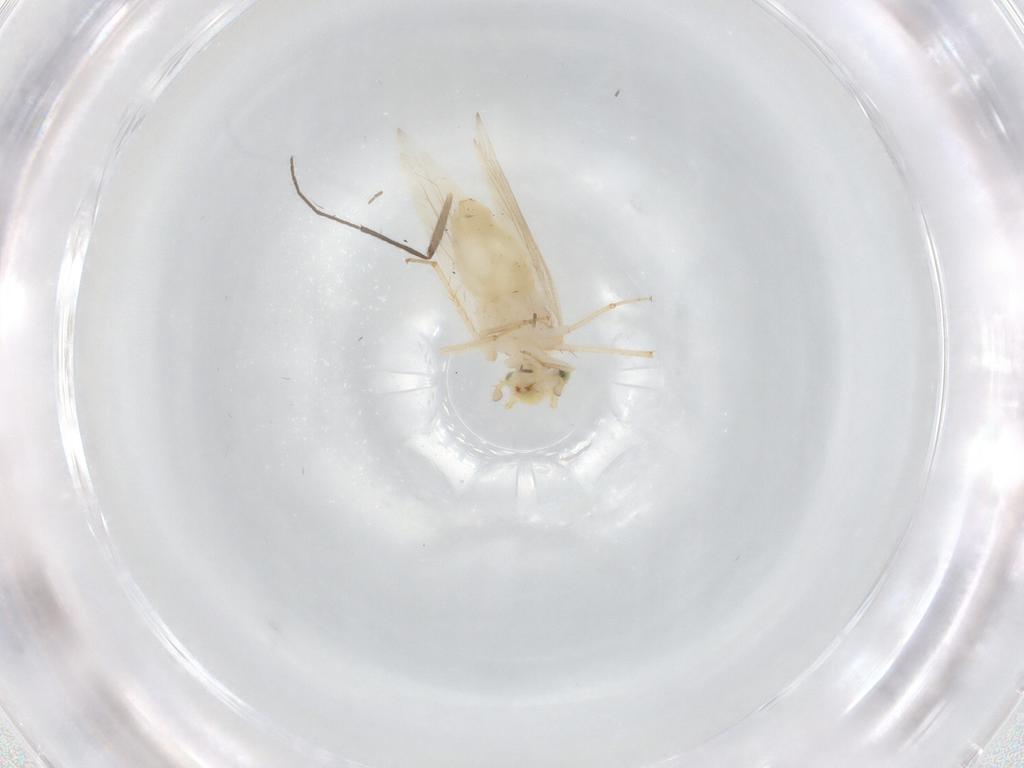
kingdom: Animalia
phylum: Arthropoda
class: Insecta
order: Psocodea
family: Lepidopsocidae
